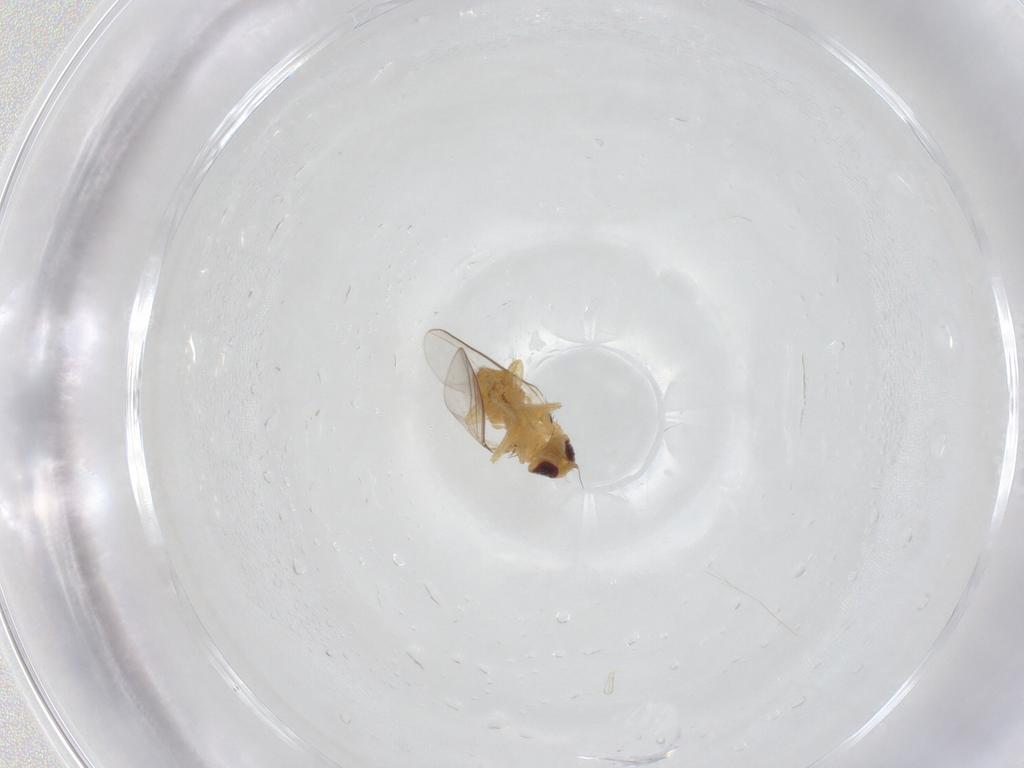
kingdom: Animalia
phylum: Arthropoda
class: Insecta
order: Diptera
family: Chloropidae
